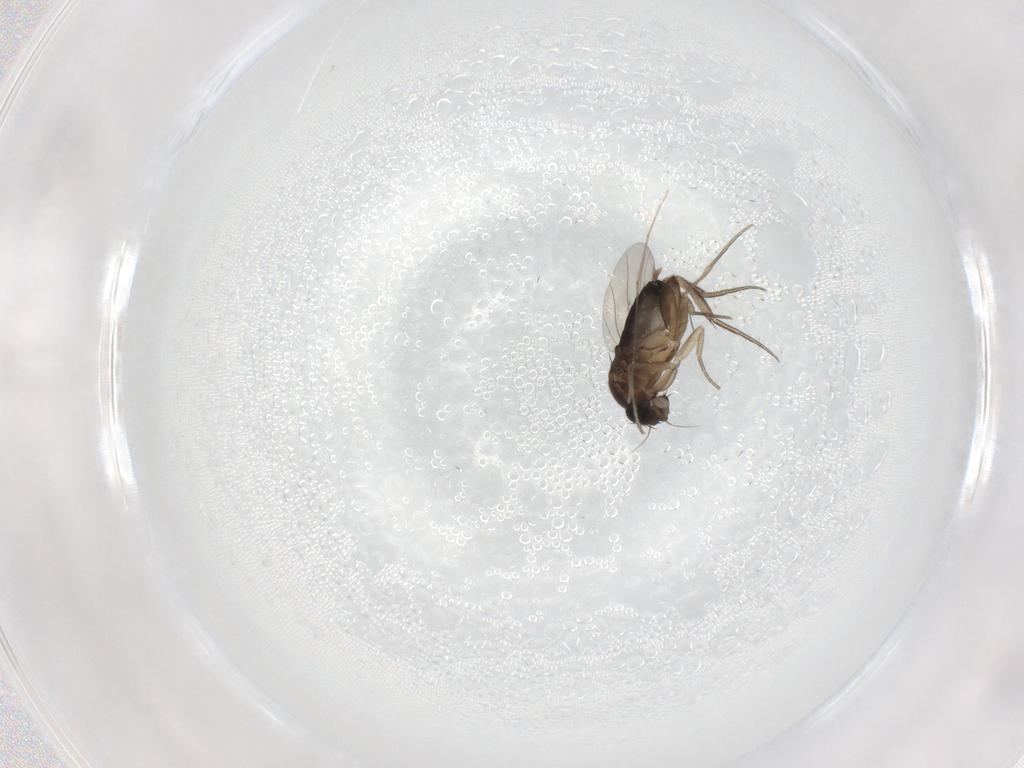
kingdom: Animalia
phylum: Arthropoda
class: Insecta
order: Diptera
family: Phoridae
